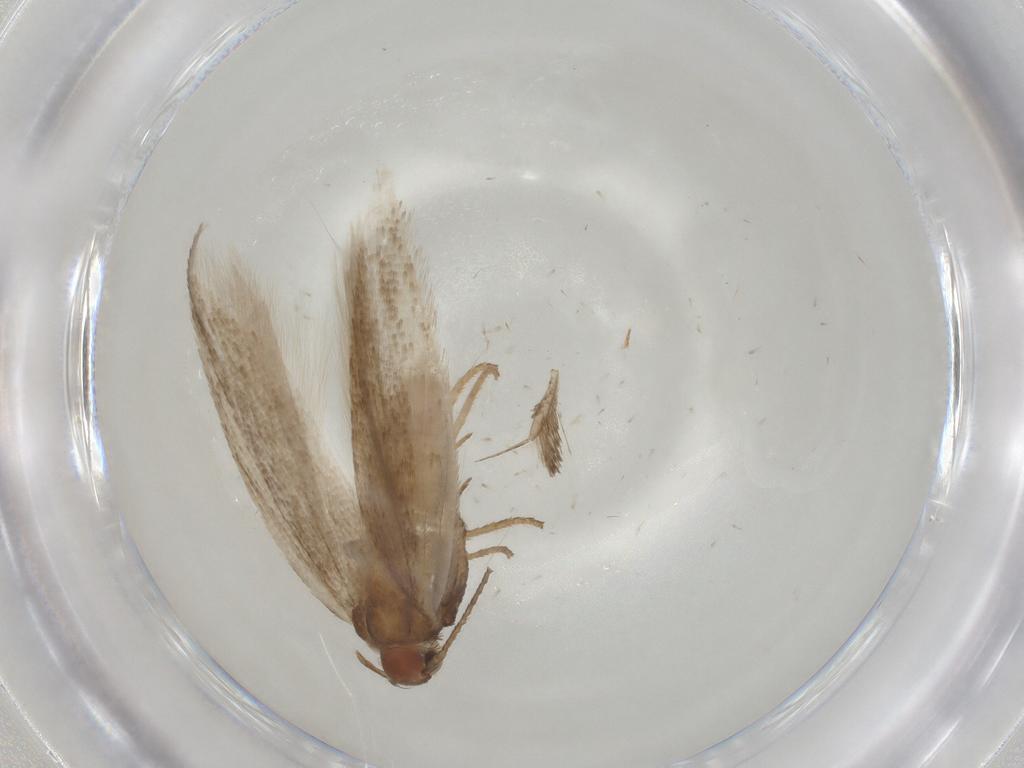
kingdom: Animalia
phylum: Arthropoda
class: Insecta
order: Lepidoptera
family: Gelechiidae
